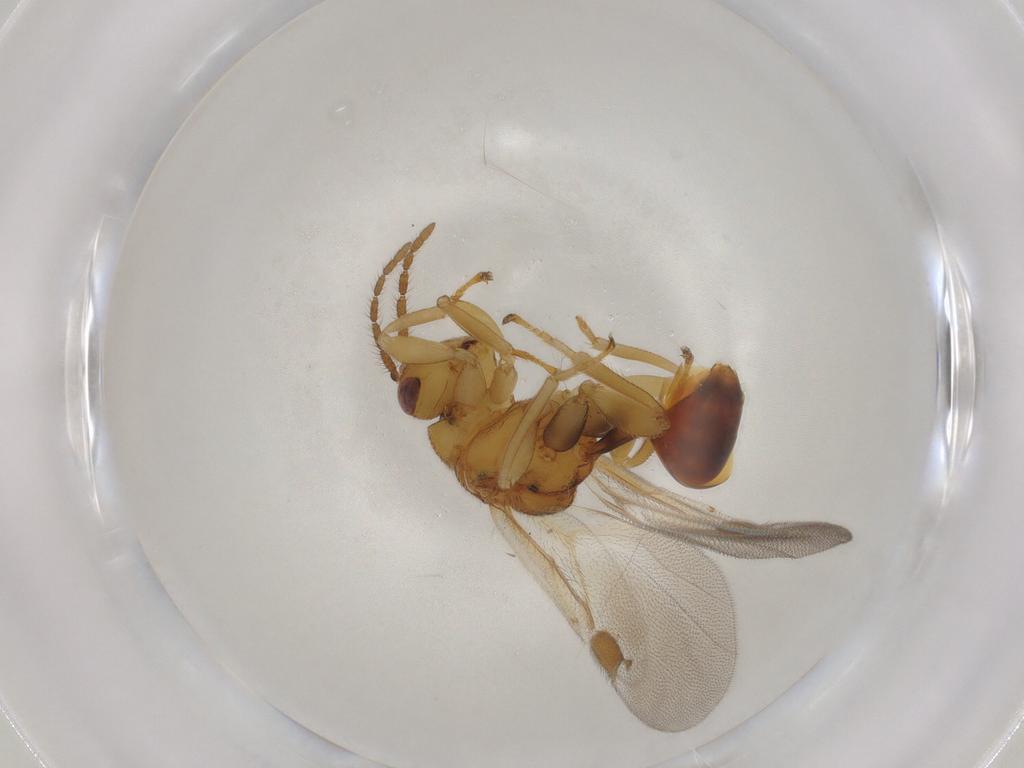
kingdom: Animalia
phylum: Arthropoda
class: Insecta
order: Hymenoptera
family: Eurytomidae
